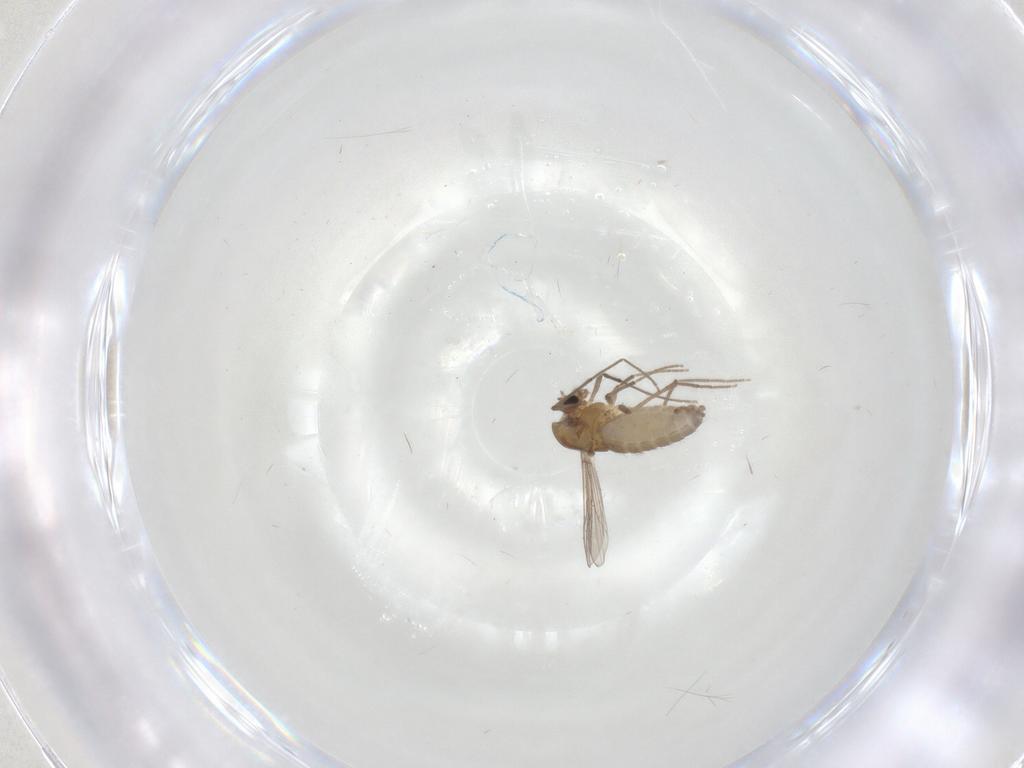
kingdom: Animalia
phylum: Arthropoda
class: Insecta
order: Diptera
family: Chironomidae
